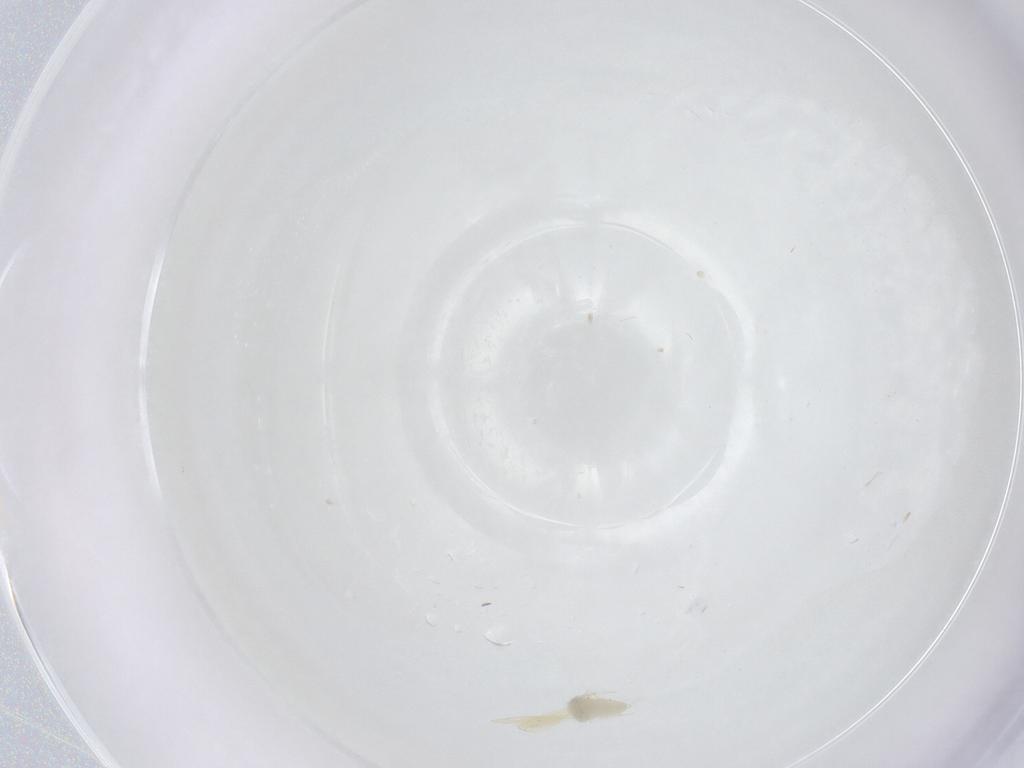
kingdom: Animalia
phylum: Arthropoda
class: Insecta
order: Hemiptera
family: Aleyrodidae
